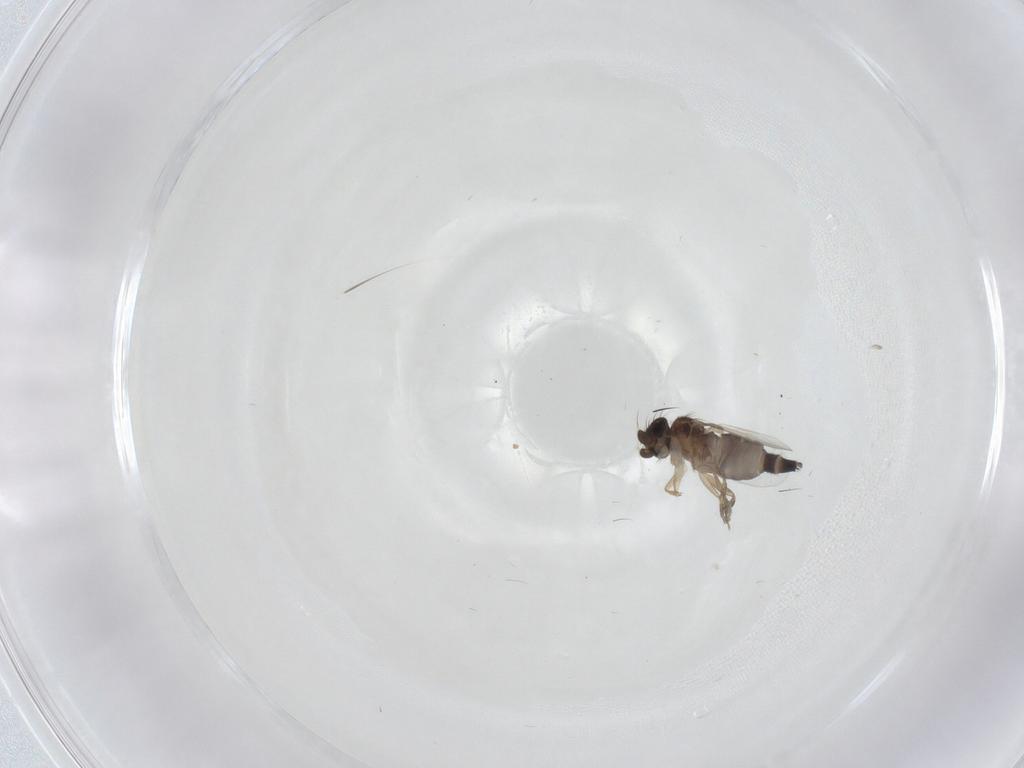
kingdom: Animalia
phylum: Arthropoda
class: Insecta
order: Diptera
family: Phoridae
